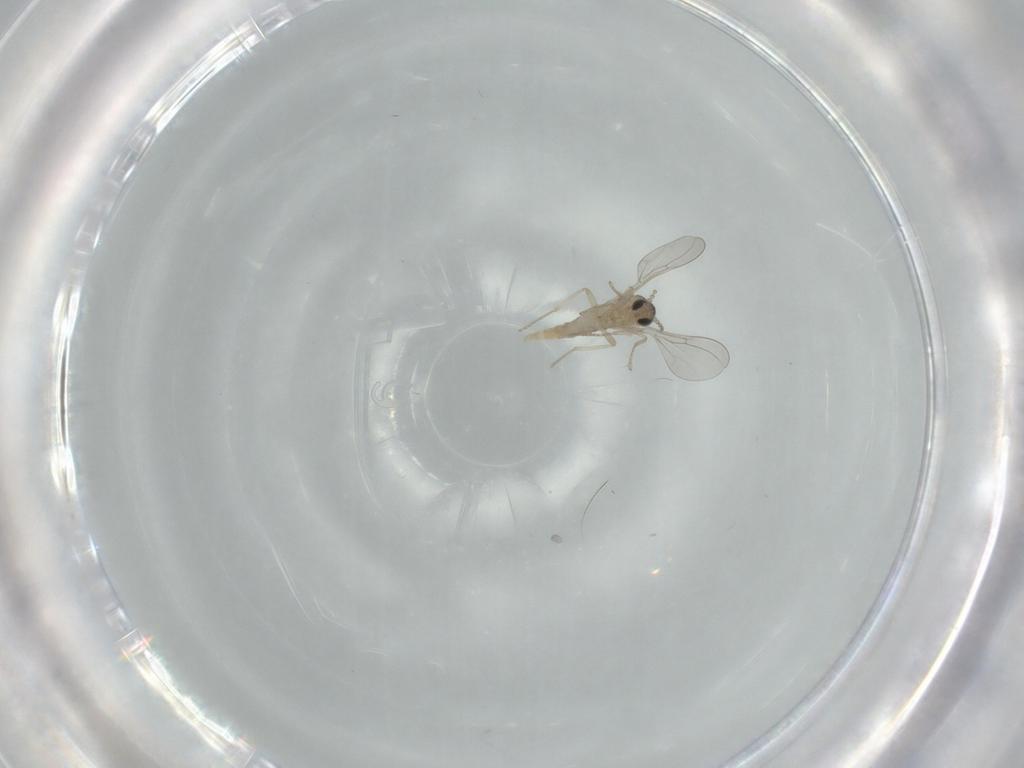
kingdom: Animalia
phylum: Arthropoda
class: Insecta
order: Diptera
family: Cecidomyiidae
